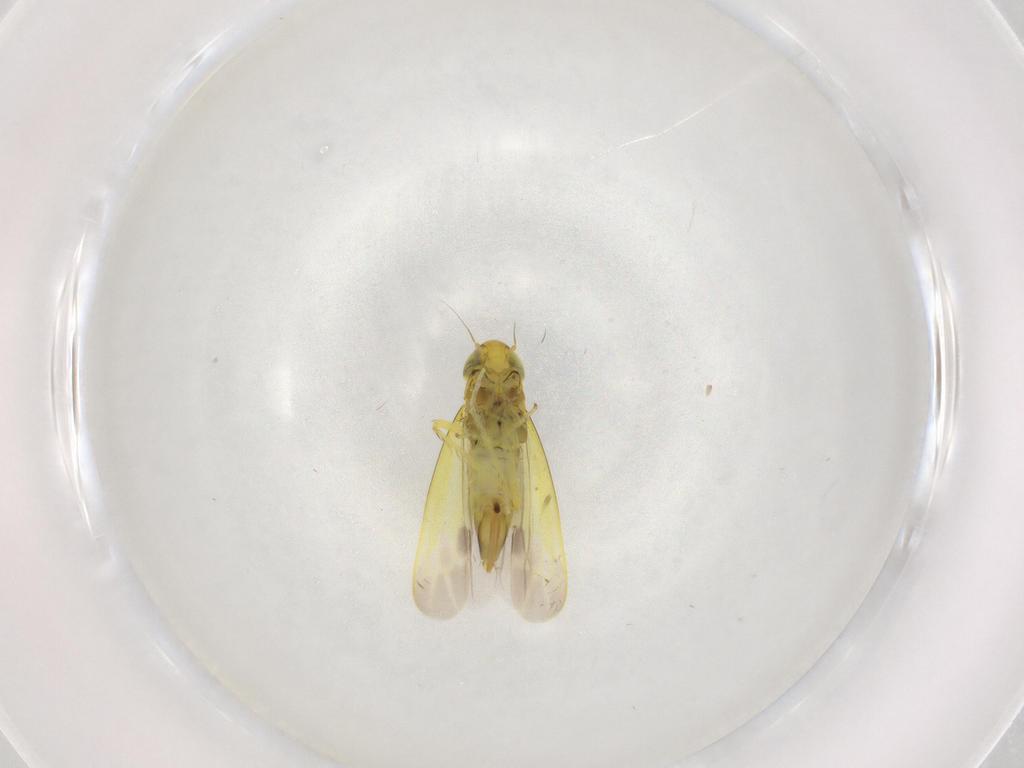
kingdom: Animalia
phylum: Arthropoda
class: Insecta
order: Hemiptera
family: Cicadellidae
